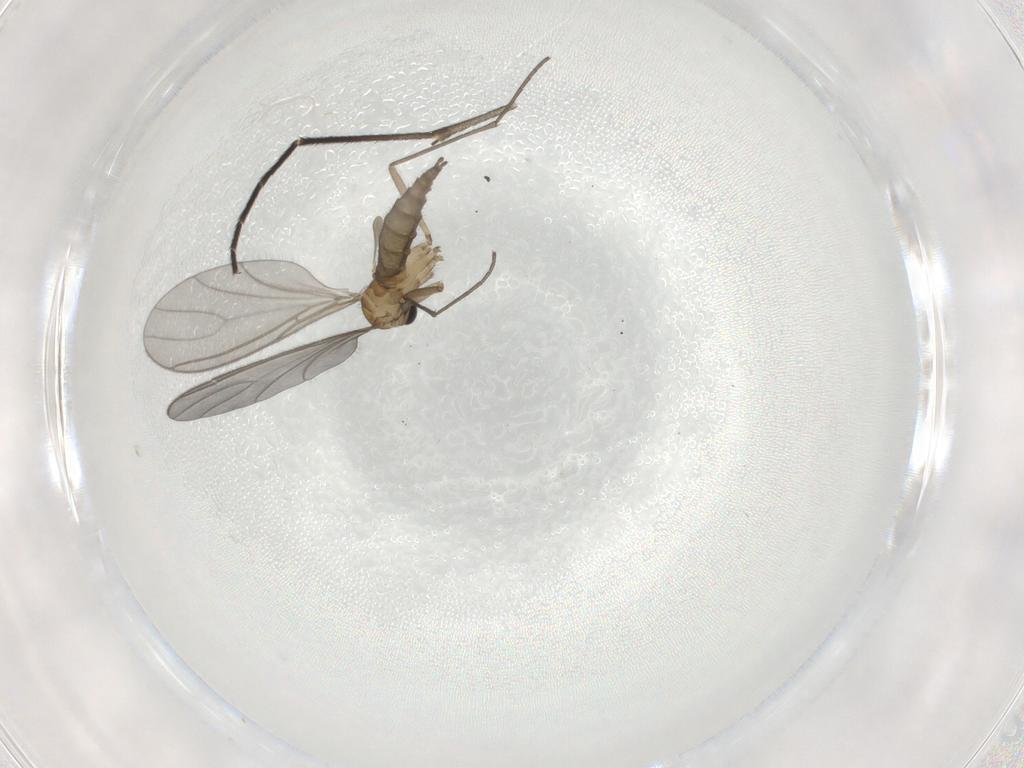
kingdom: Animalia
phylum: Arthropoda
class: Insecta
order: Diptera
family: Sciaridae
